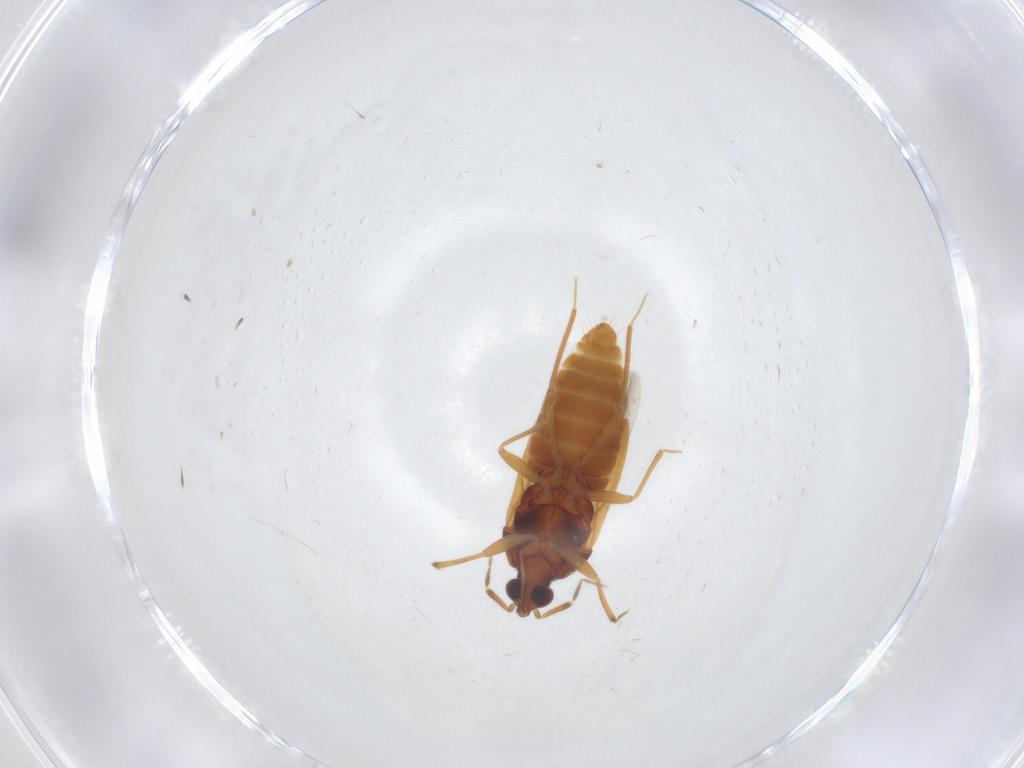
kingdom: Animalia
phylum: Arthropoda
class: Insecta
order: Hemiptera
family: Anthocoridae
